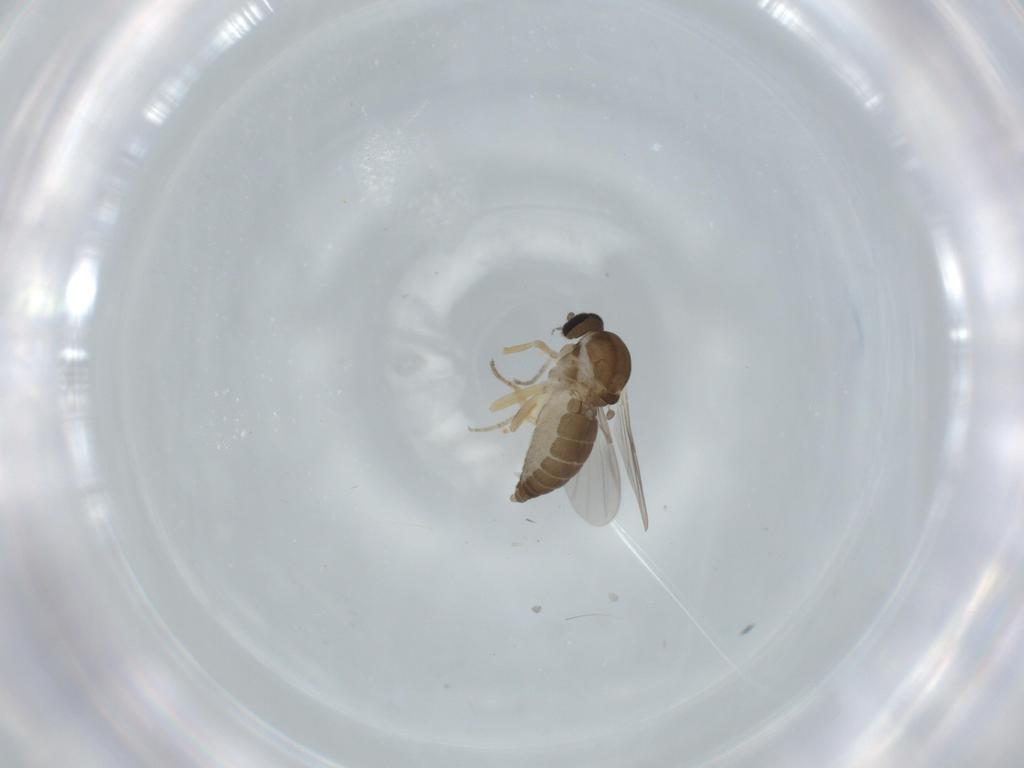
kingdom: Animalia
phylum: Arthropoda
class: Insecta
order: Diptera
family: Ceratopogonidae
